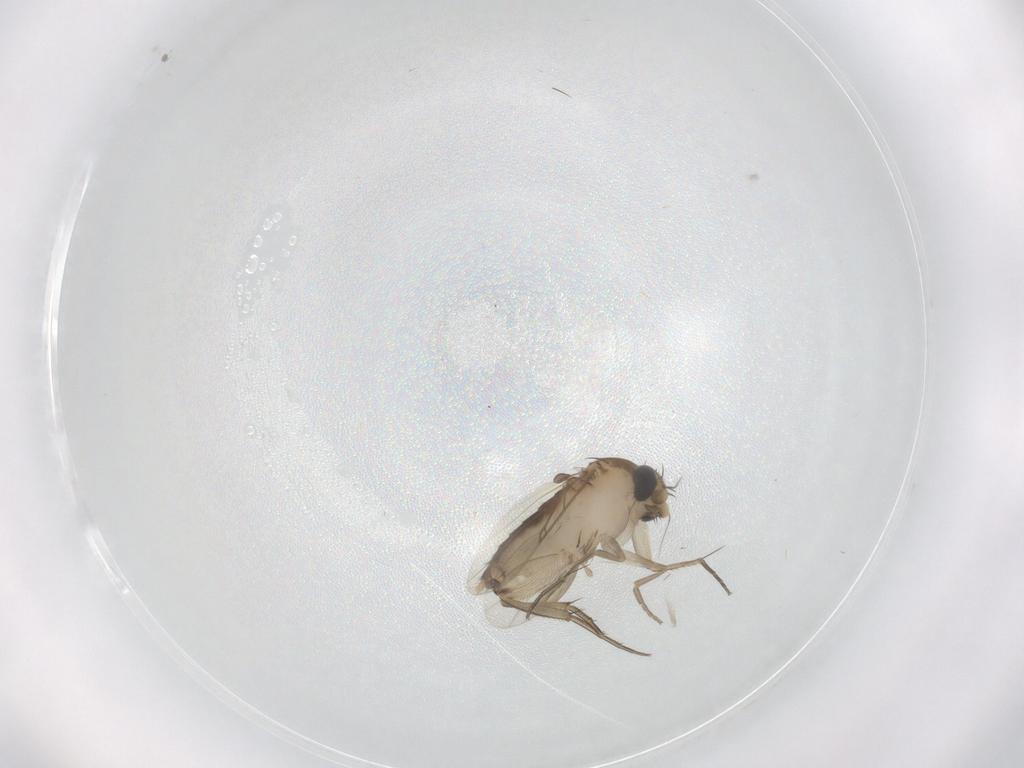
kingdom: Animalia
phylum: Arthropoda
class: Insecta
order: Diptera
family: Phoridae
